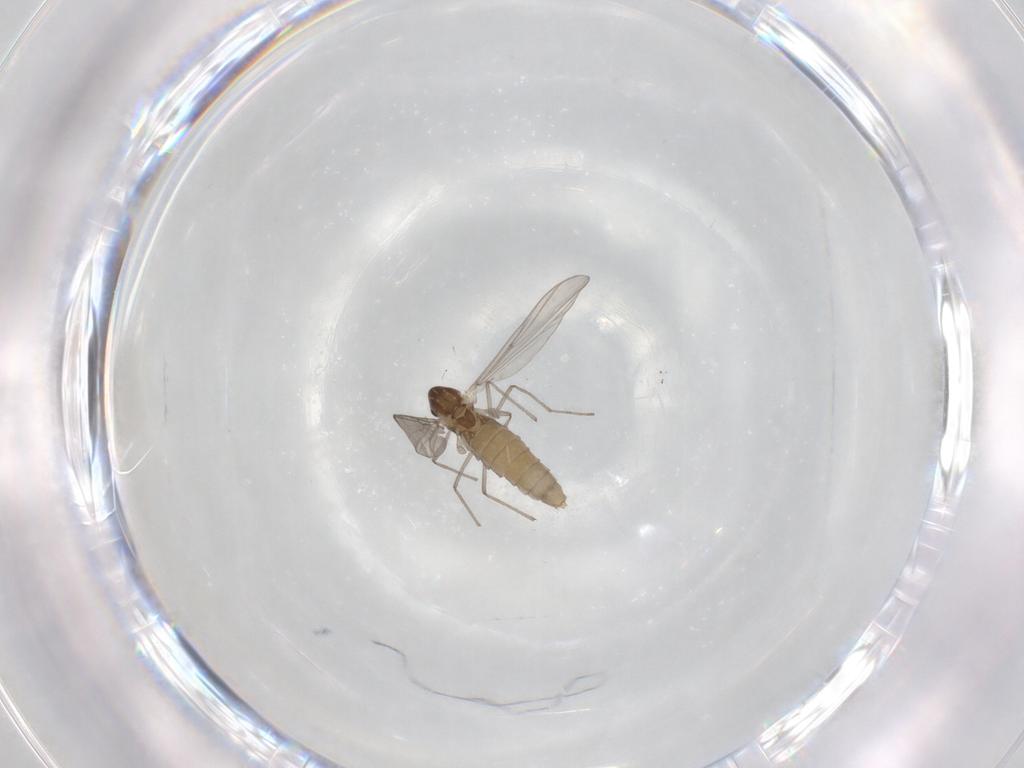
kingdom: Animalia
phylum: Arthropoda
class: Insecta
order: Diptera
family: Chironomidae
